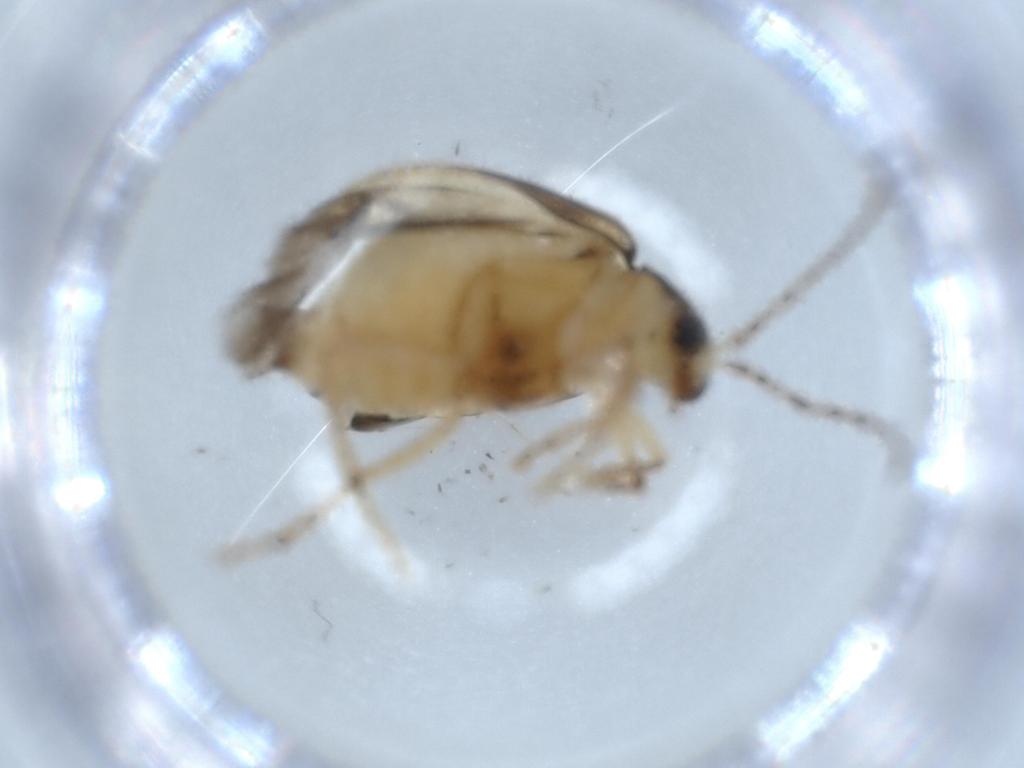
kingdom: Animalia
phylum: Arthropoda
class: Insecta
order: Coleoptera
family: Chrysomelidae
